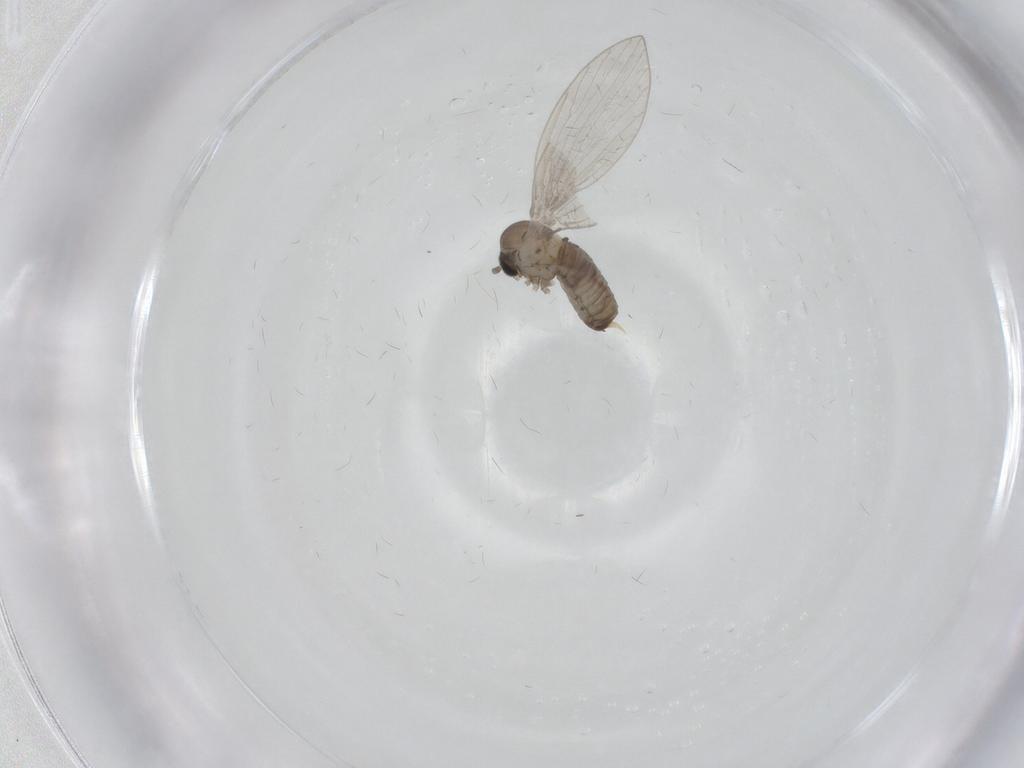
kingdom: Animalia
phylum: Arthropoda
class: Insecta
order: Diptera
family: Psychodidae
